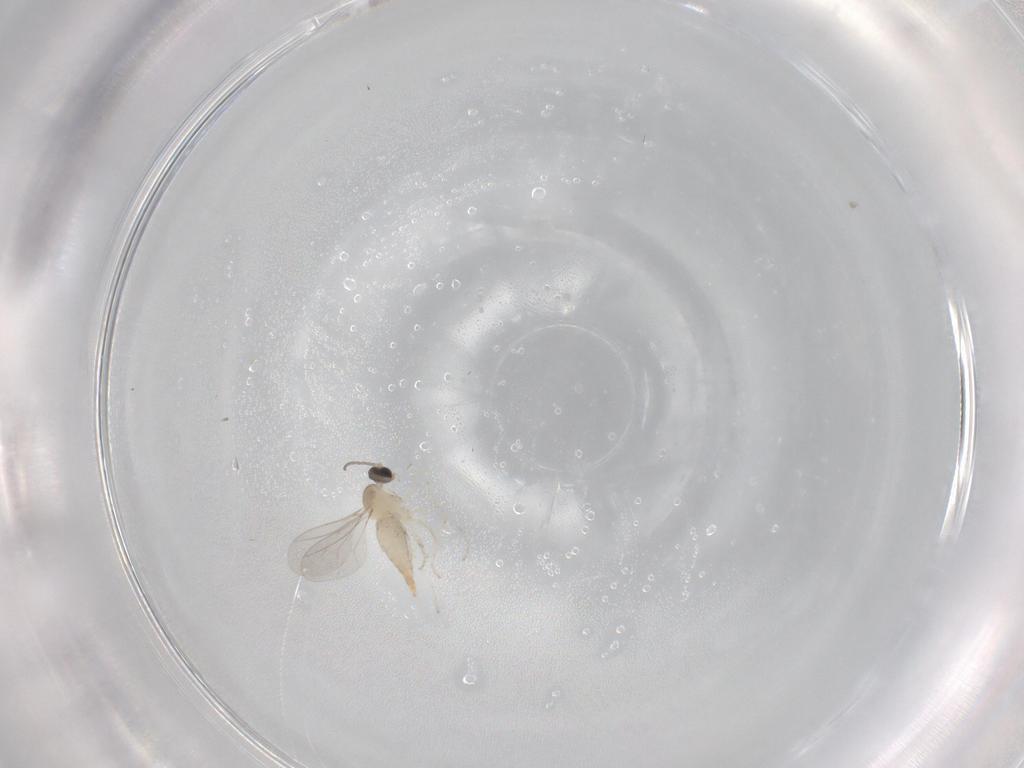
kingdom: Animalia
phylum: Arthropoda
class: Insecta
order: Diptera
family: Cecidomyiidae
